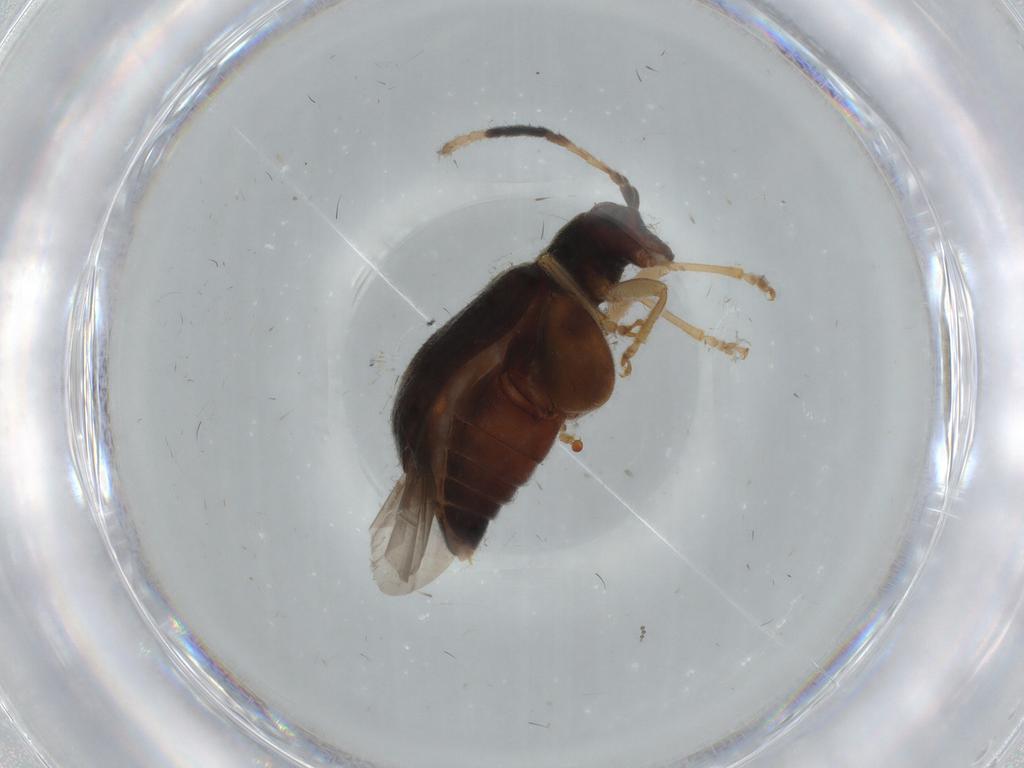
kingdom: Animalia
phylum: Arthropoda
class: Insecta
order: Coleoptera
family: Chrysomelidae
